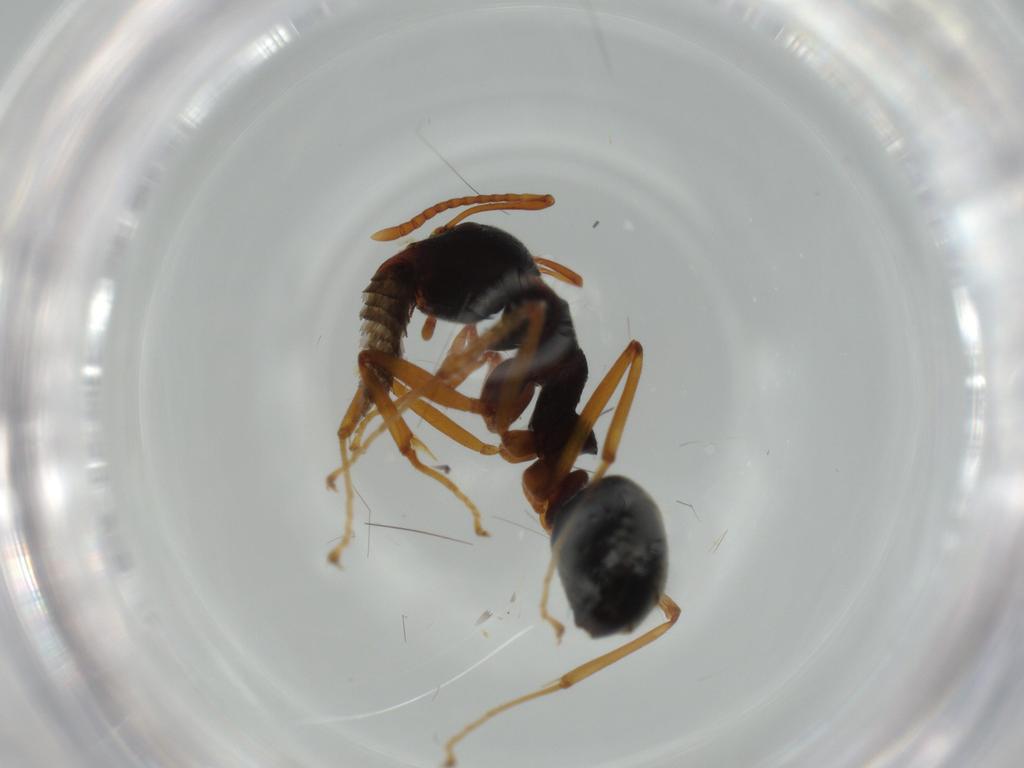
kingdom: Animalia
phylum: Arthropoda
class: Insecta
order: Hymenoptera
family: Formicidae
